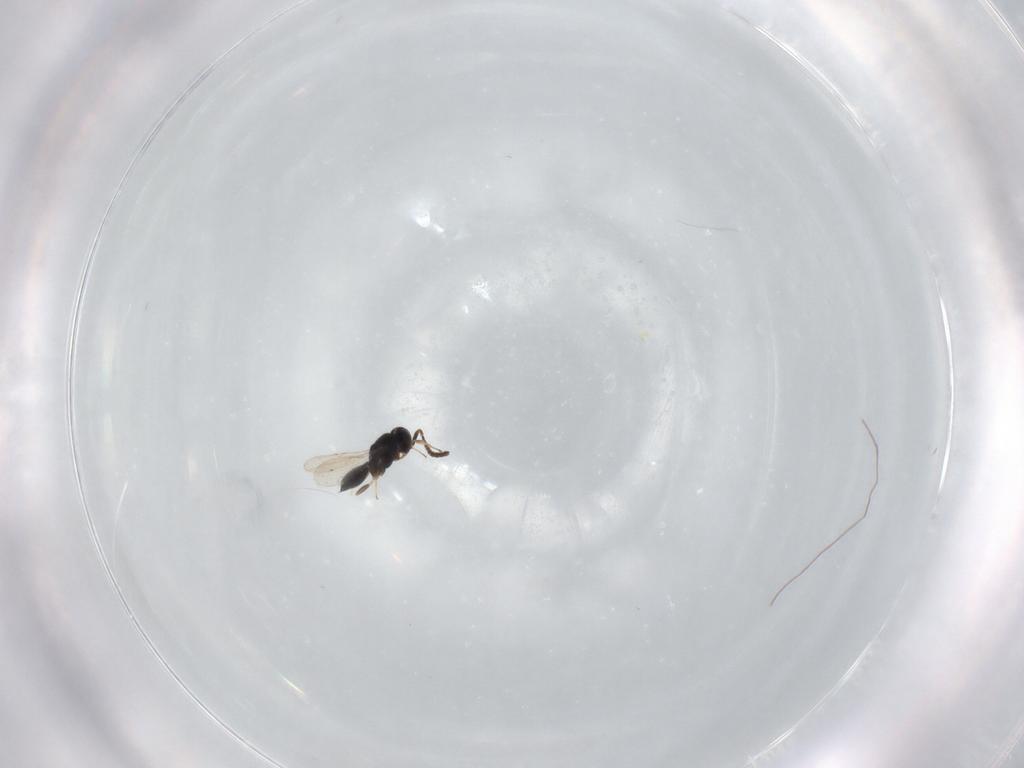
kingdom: Animalia
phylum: Arthropoda
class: Insecta
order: Hymenoptera
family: Scelionidae
